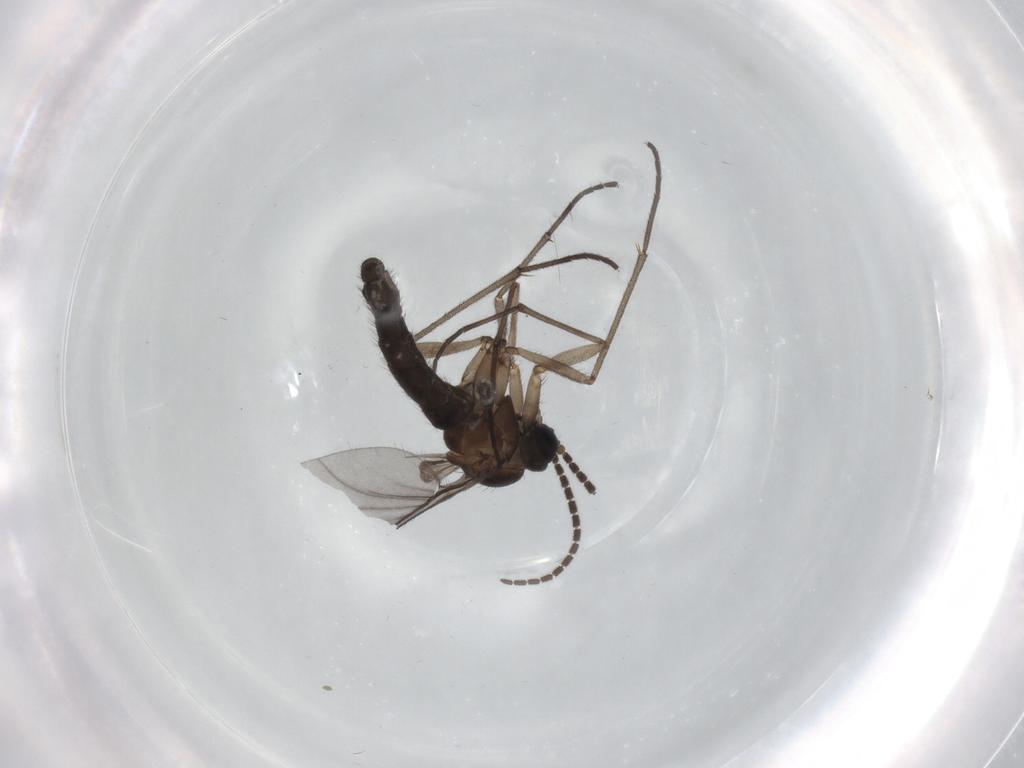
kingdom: Animalia
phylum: Arthropoda
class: Insecta
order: Diptera
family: Sciaridae
